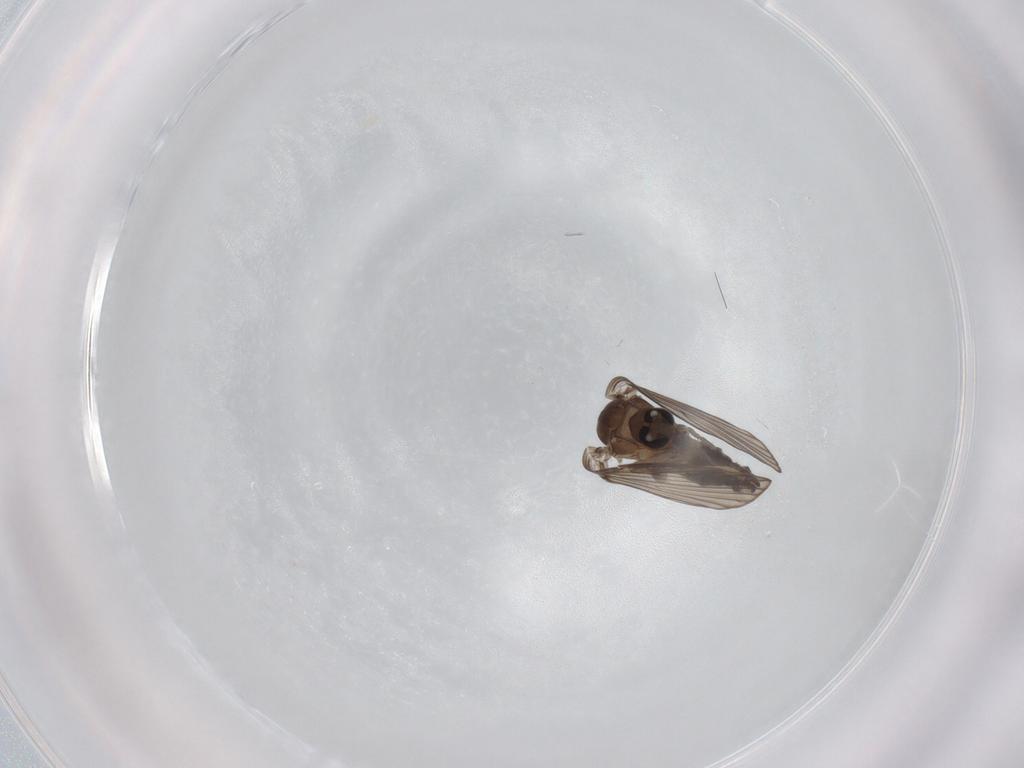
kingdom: Animalia
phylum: Arthropoda
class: Insecta
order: Diptera
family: Psychodidae
